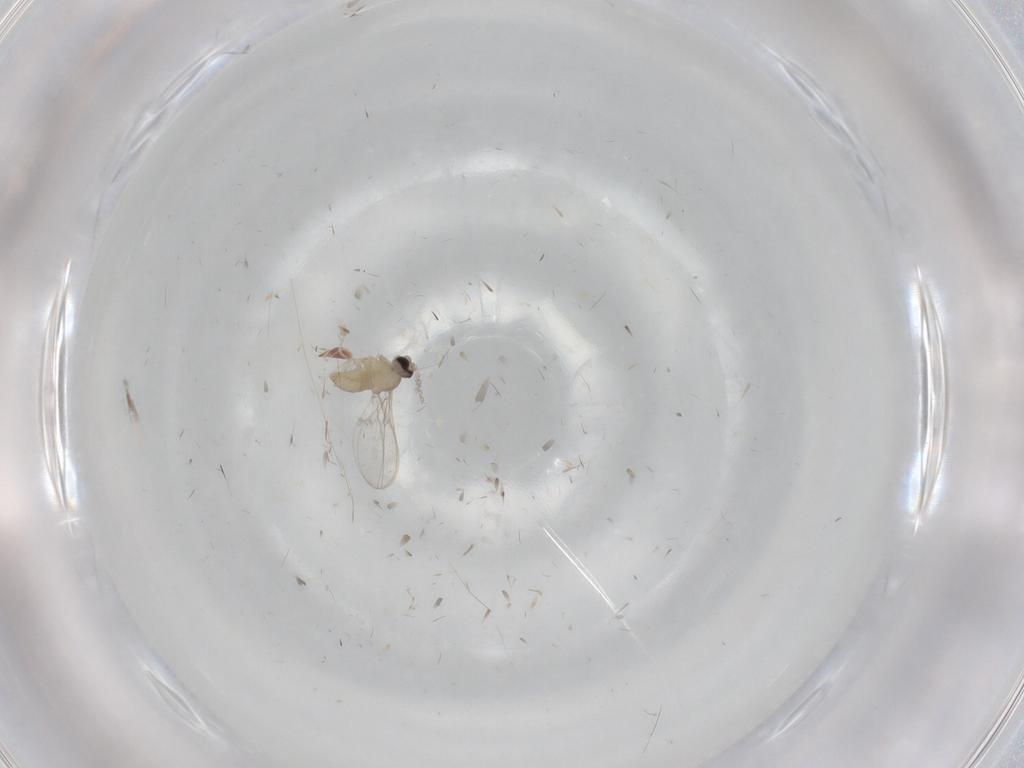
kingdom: Animalia
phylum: Arthropoda
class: Insecta
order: Diptera
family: Cecidomyiidae
